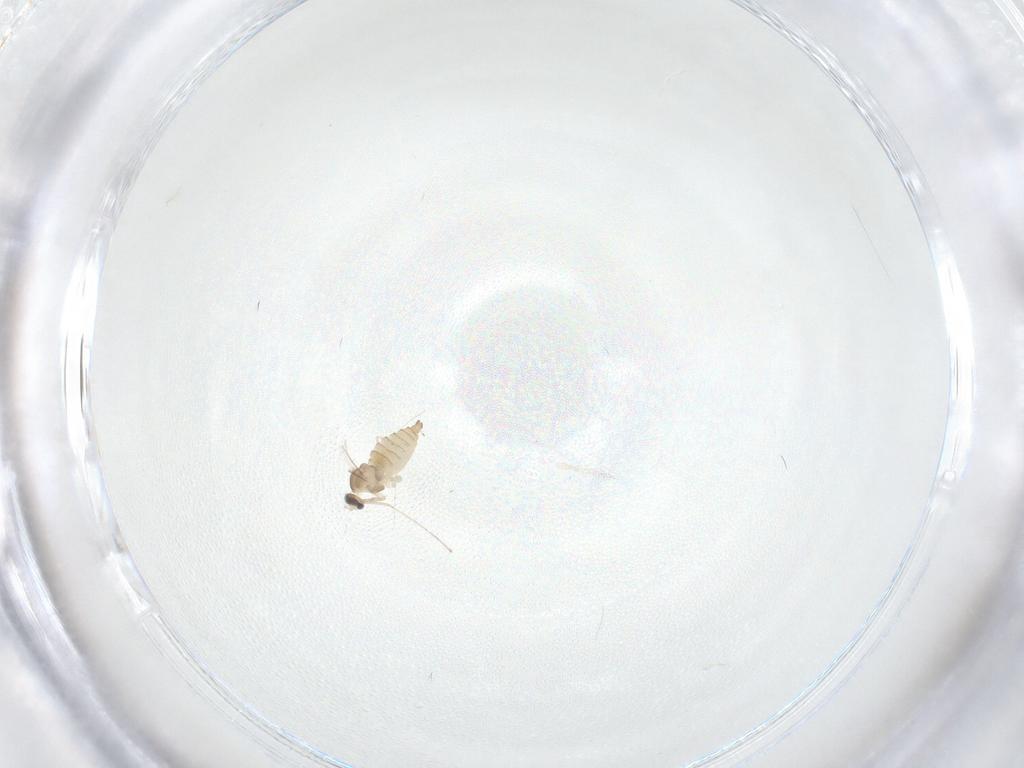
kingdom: Animalia
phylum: Arthropoda
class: Insecta
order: Diptera
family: Cecidomyiidae
